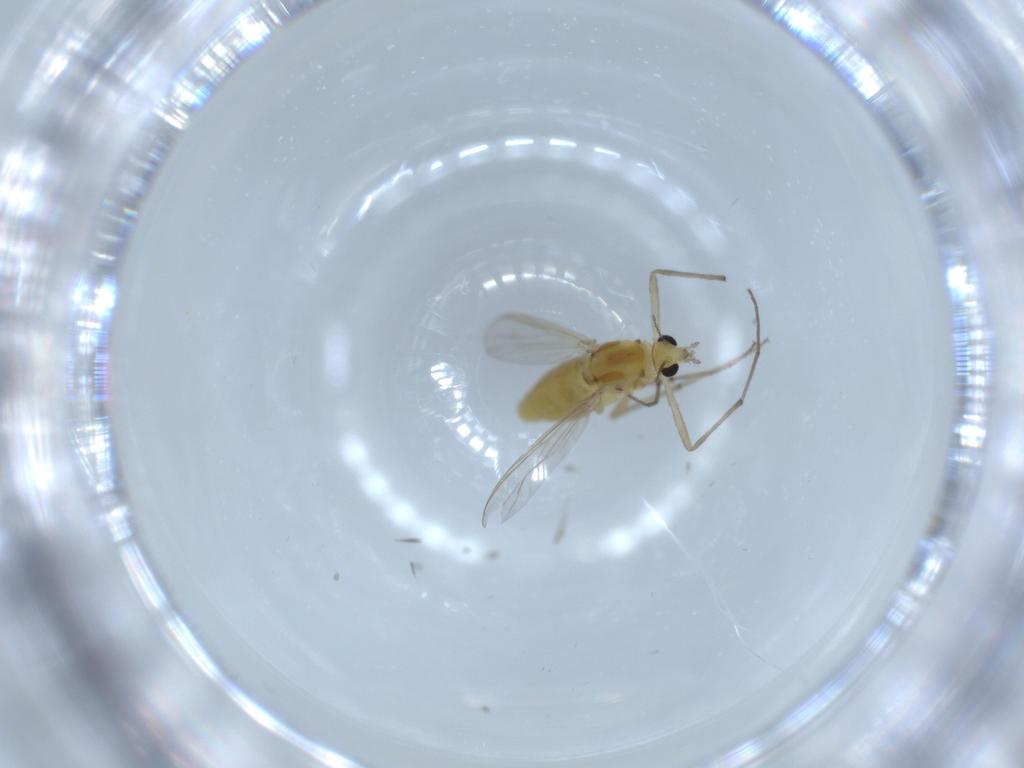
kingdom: Animalia
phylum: Arthropoda
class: Insecta
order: Diptera
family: Chironomidae
